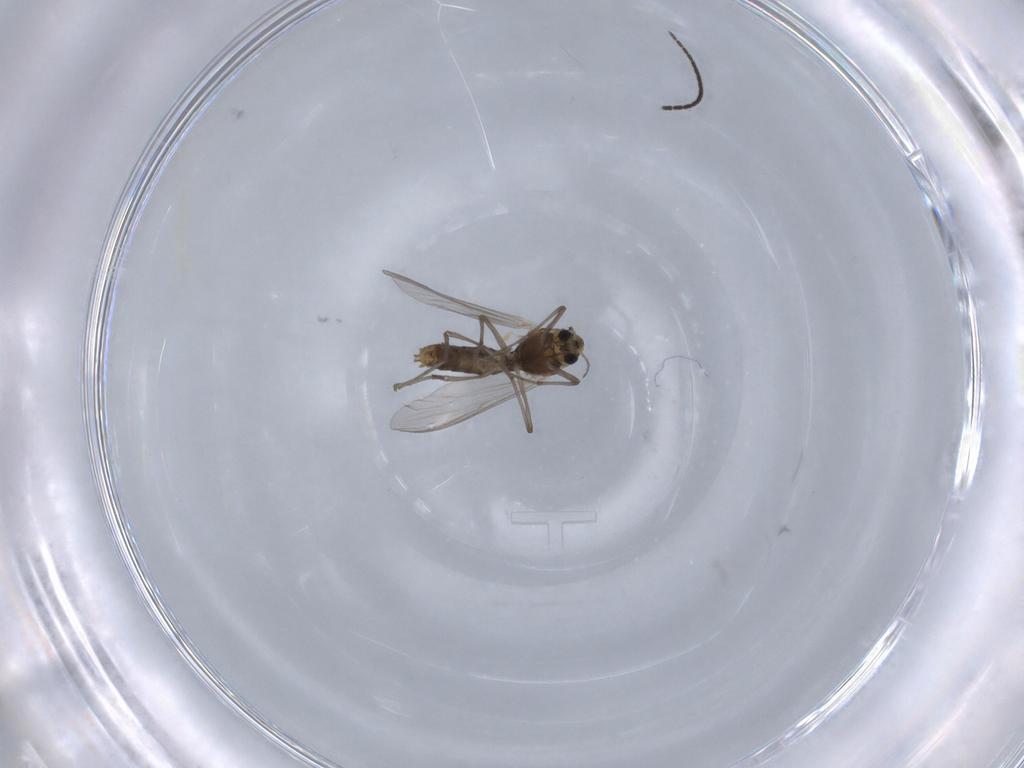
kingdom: Animalia
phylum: Arthropoda
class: Insecta
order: Diptera
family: Chironomidae
